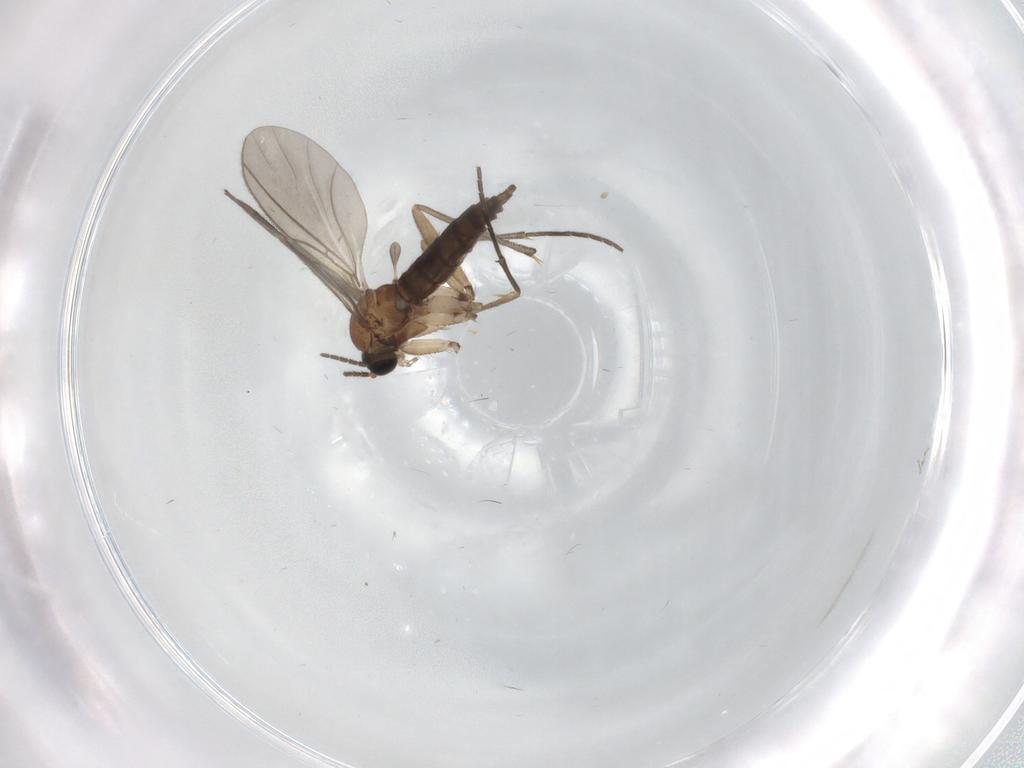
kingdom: Animalia
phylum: Arthropoda
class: Insecta
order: Diptera
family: Sciaridae
